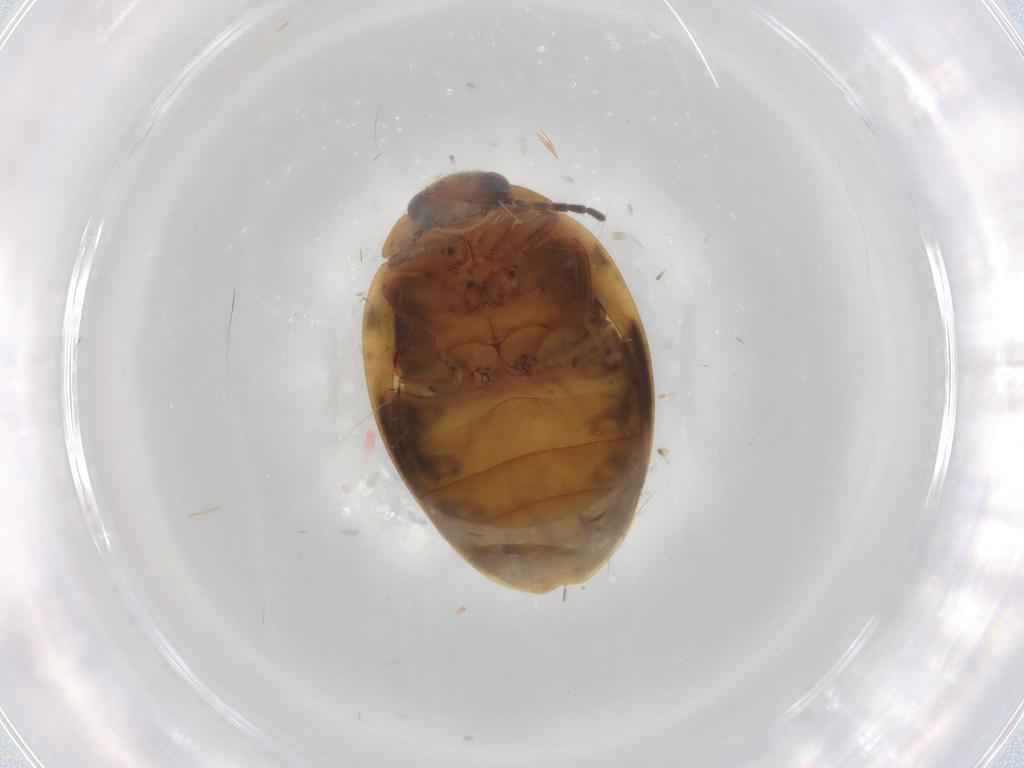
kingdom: Animalia
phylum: Arthropoda
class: Insecta
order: Coleoptera
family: Scirtidae
